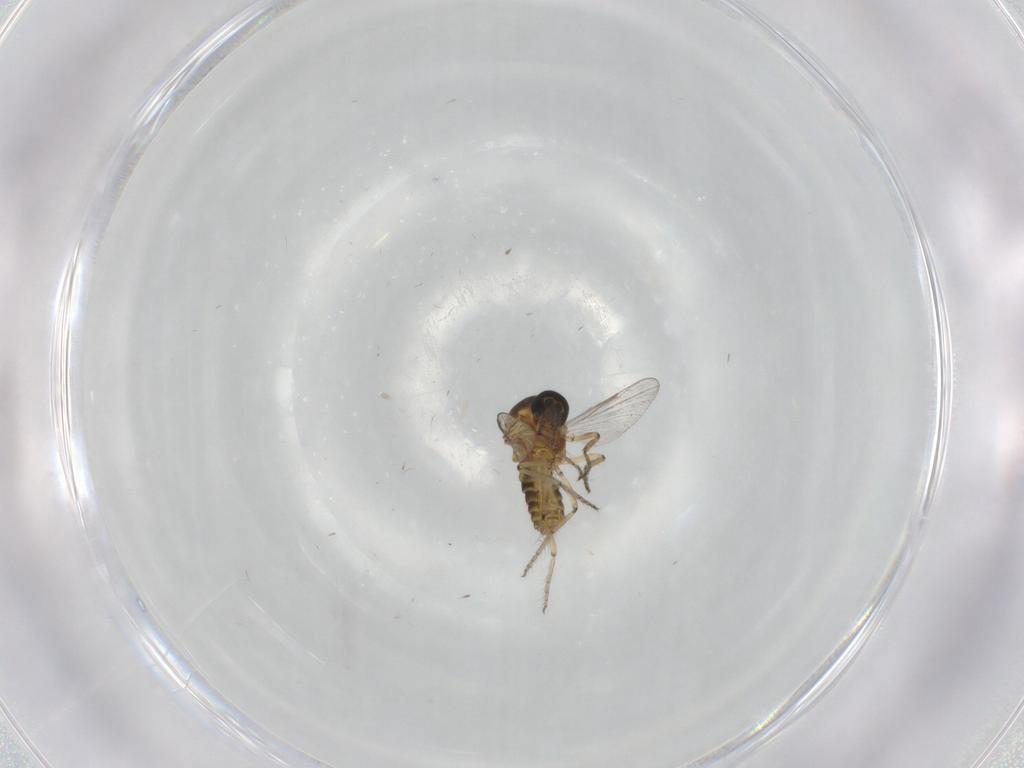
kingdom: Animalia
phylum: Arthropoda
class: Insecta
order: Diptera
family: Ceratopogonidae
